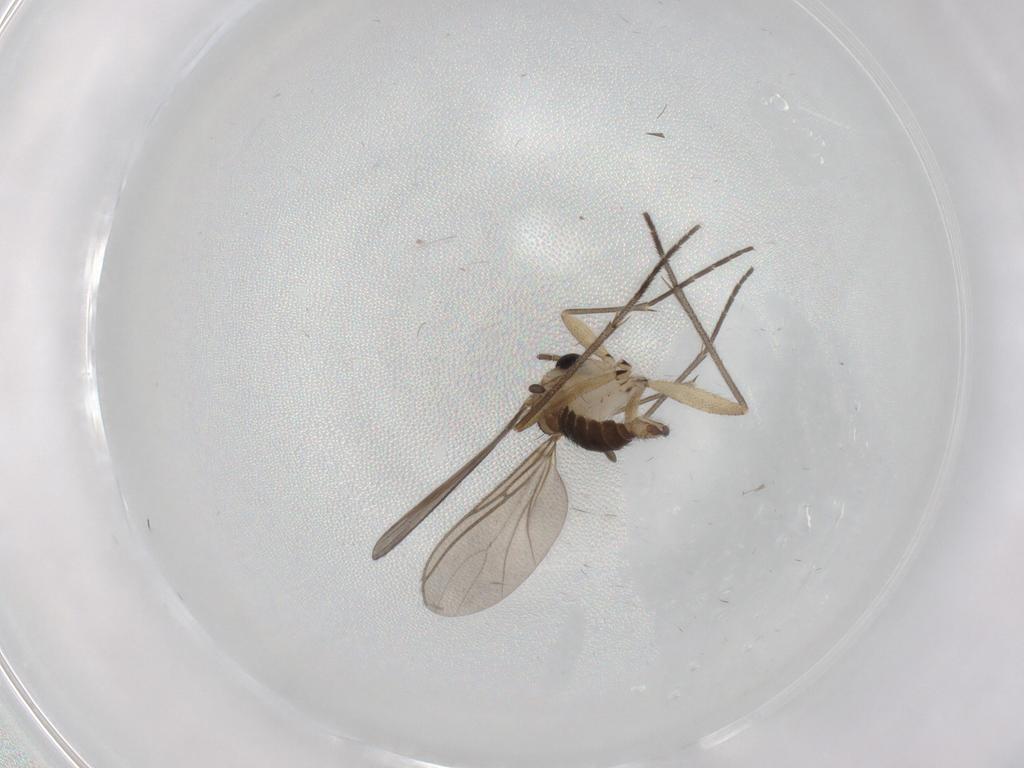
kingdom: Animalia
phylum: Arthropoda
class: Insecta
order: Diptera
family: Sciaridae
